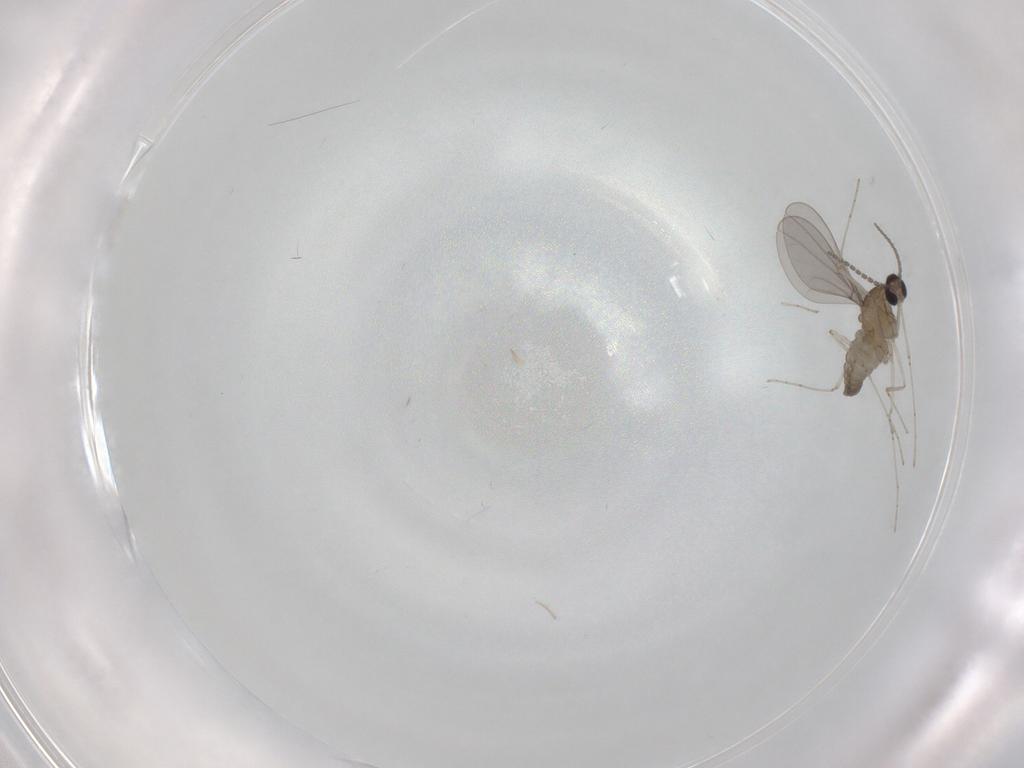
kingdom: Animalia
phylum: Arthropoda
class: Insecta
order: Diptera
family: Cecidomyiidae
